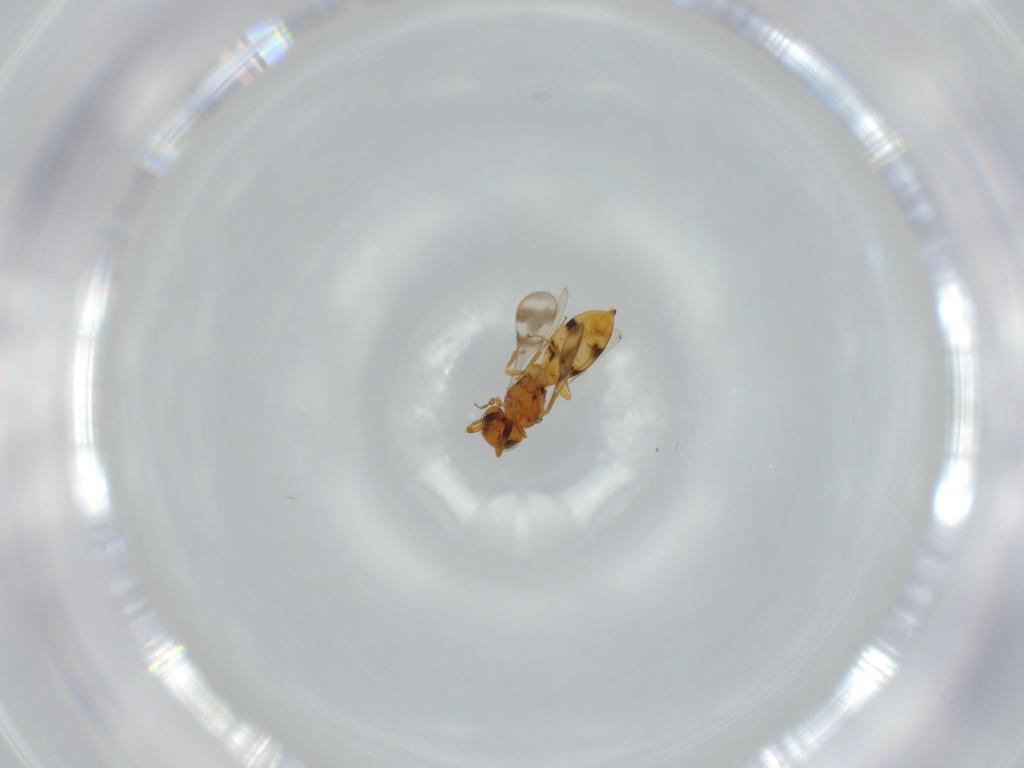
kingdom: Animalia
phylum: Arthropoda
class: Insecta
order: Hymenoptera
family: Scelionidae
